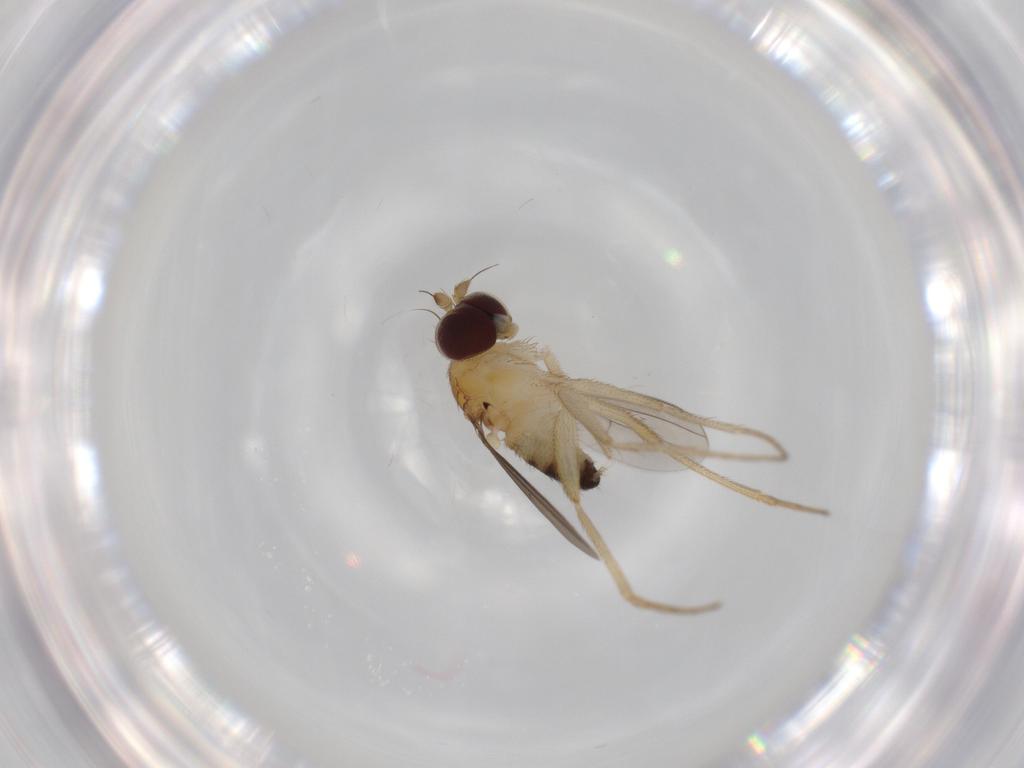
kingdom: Animalia
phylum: Arthropoda
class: Insecta
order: Diptera
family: Dolichopodidae
